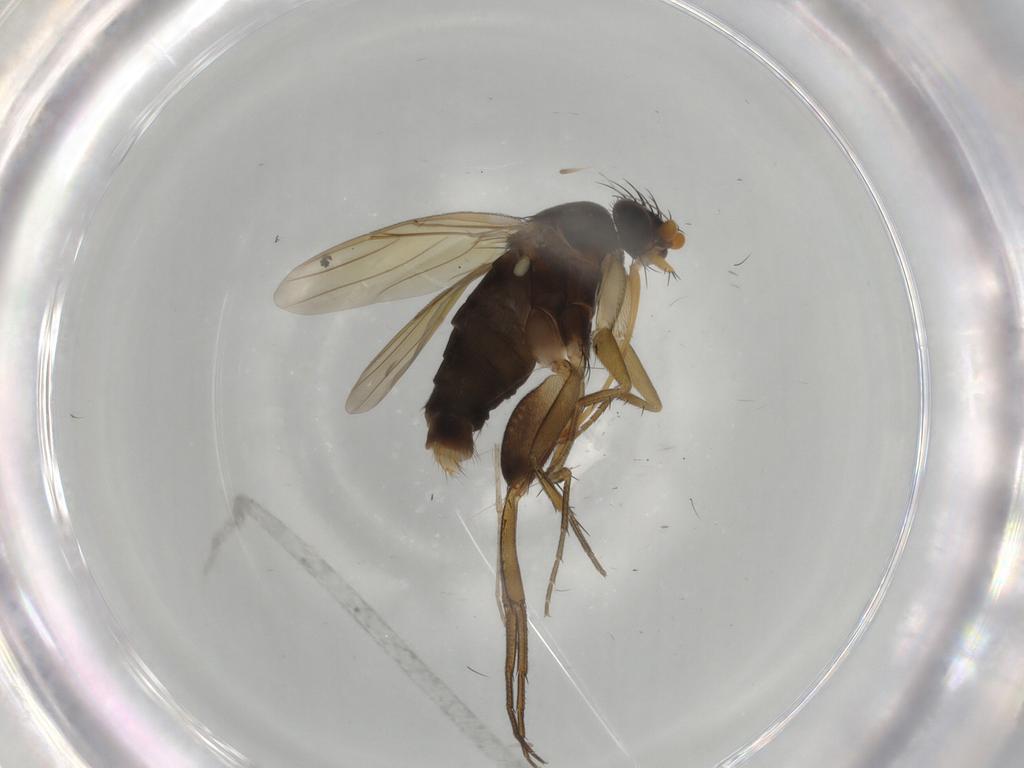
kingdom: Animalia
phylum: Arthropoda
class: Insecta
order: Diptera
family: Phoridae
